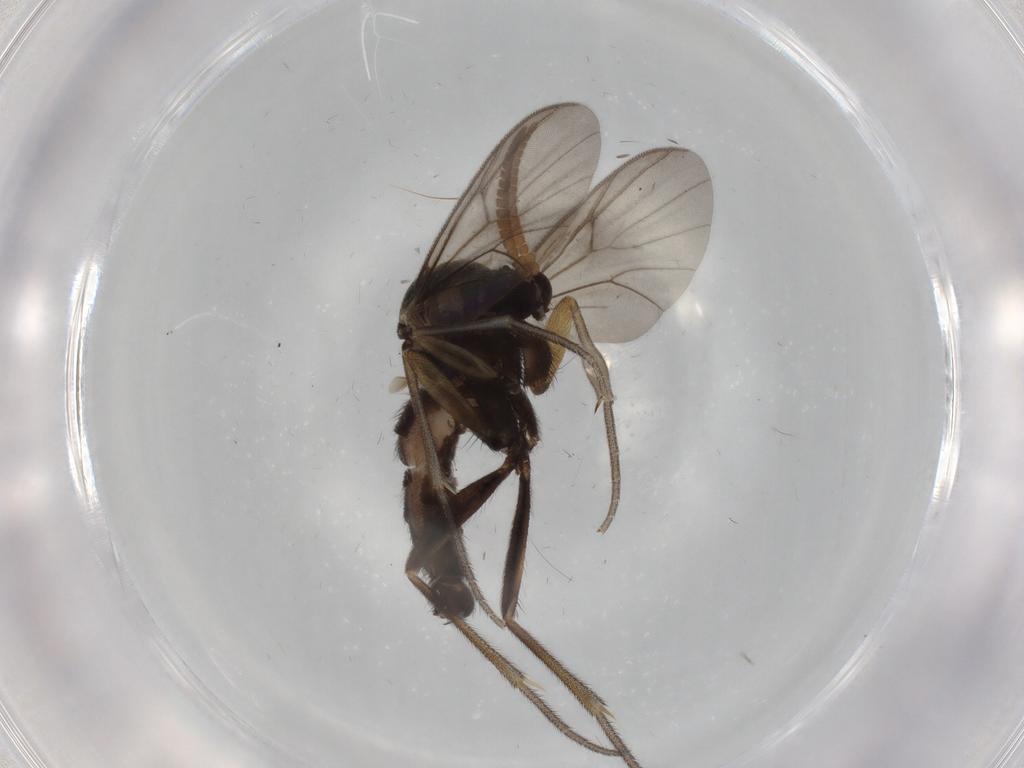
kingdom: Animalia
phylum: Arthropoda
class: Insecta
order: Diptera
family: Mycetophilidae
